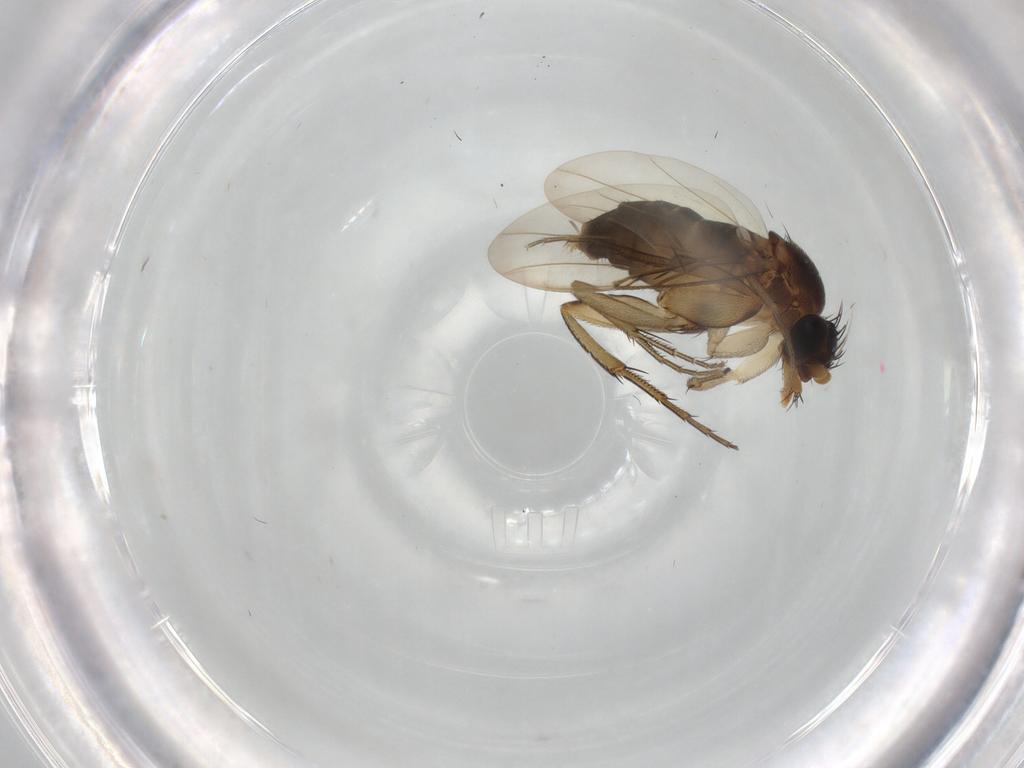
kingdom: Animalia
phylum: Arthropoda
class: Insecta
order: Diptera
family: Phoridae
